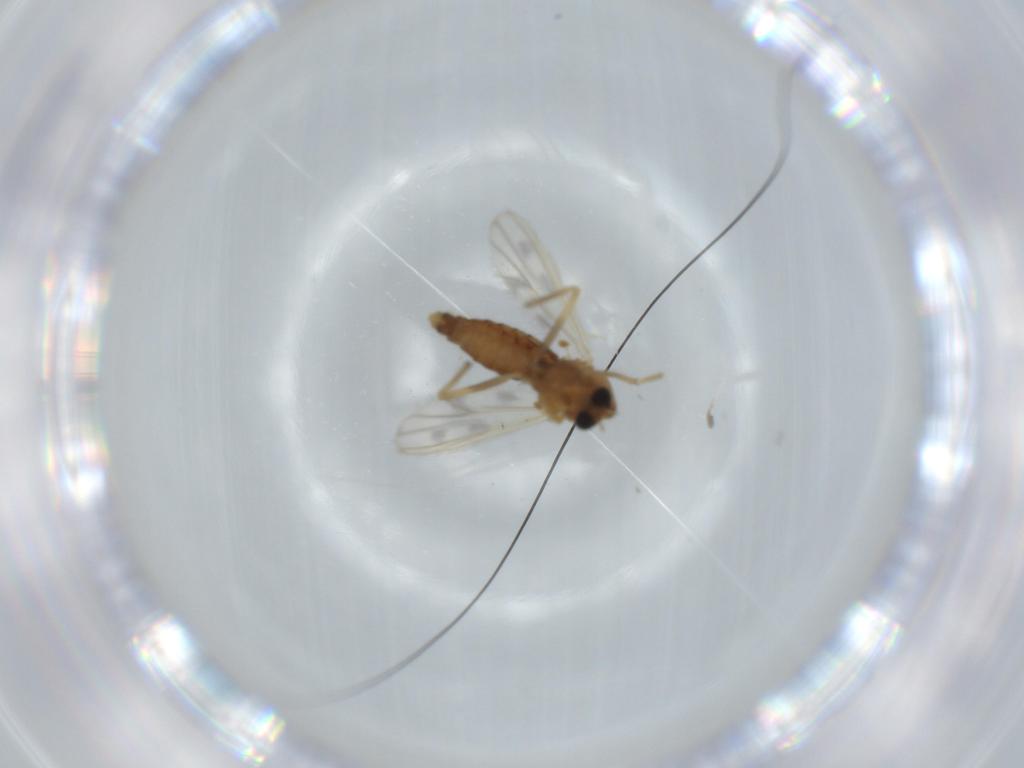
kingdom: Animalia
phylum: Arthropoda
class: Insecta
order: Diptera
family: Chironomidae
